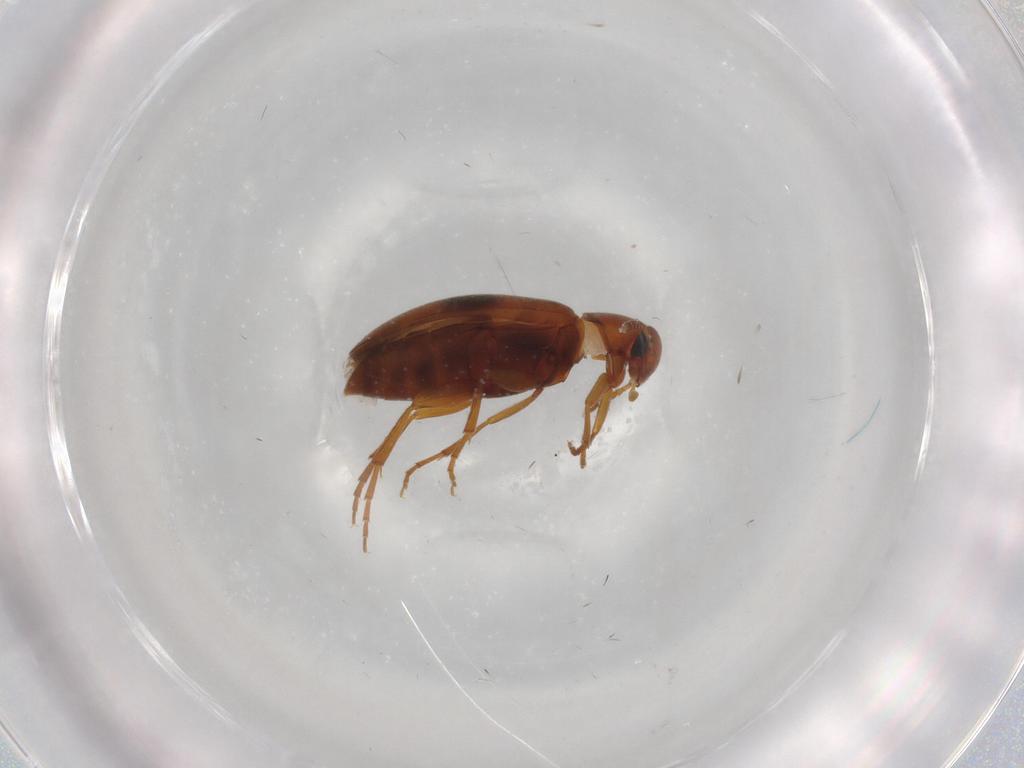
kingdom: Animalia
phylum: Arthropoda
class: Insecta
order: Coleoptera
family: Scraptiidae
